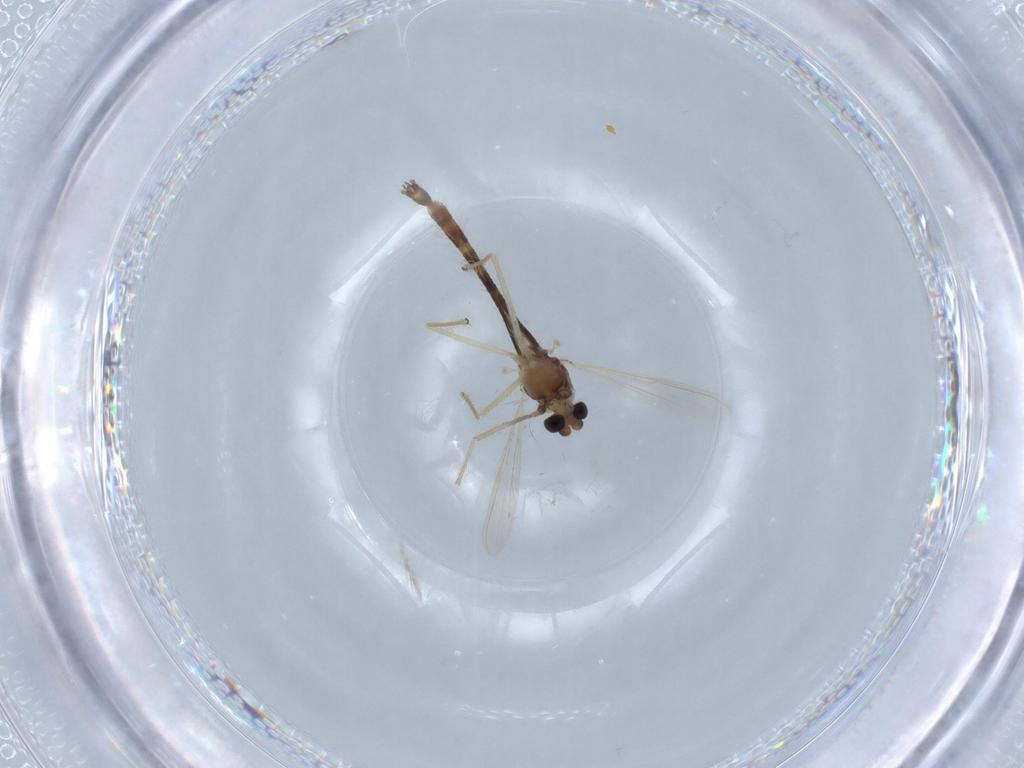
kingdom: Animalia
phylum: Arthropoda
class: Insecta
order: Diptera
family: Chironomidae
